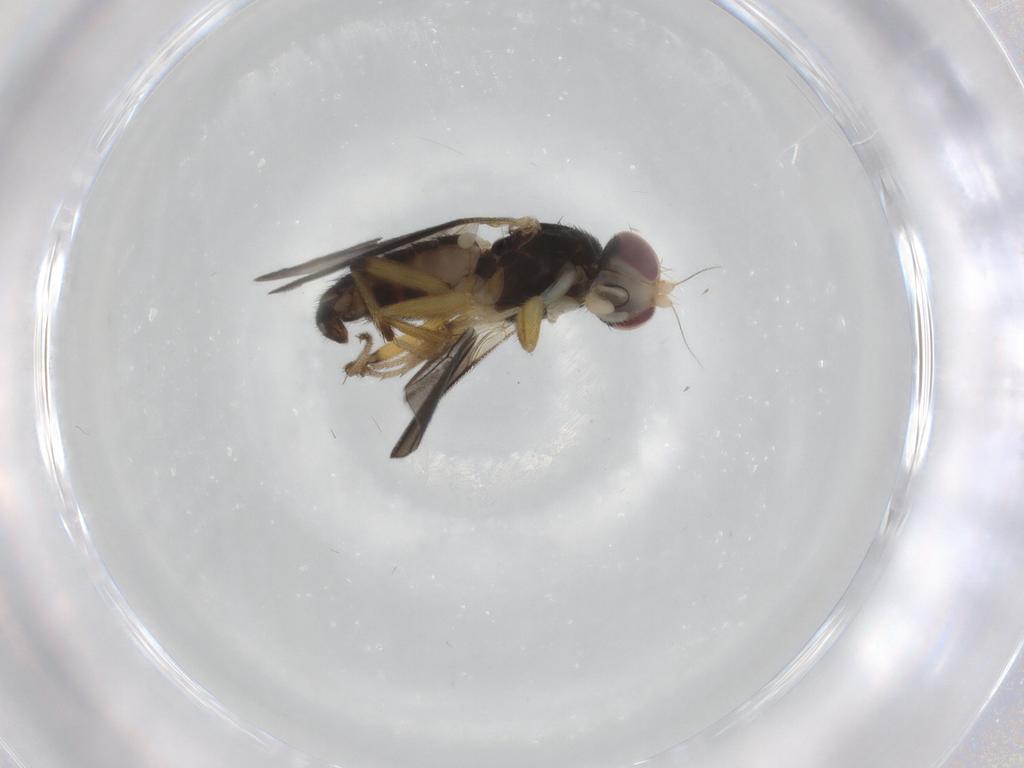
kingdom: Animalia
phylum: Arthropoda
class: Insecta
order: Diptera
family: Clusiidae
